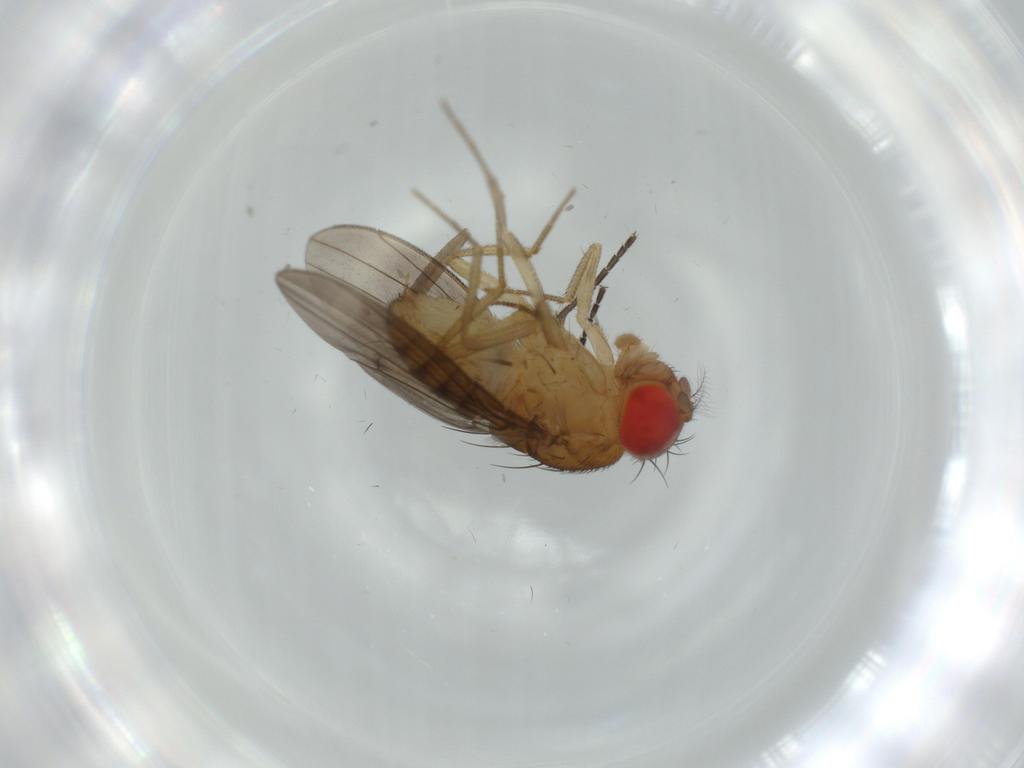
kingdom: Animalia
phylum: Arthropoda
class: Insecta
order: Diptera
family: Drosophilidae
